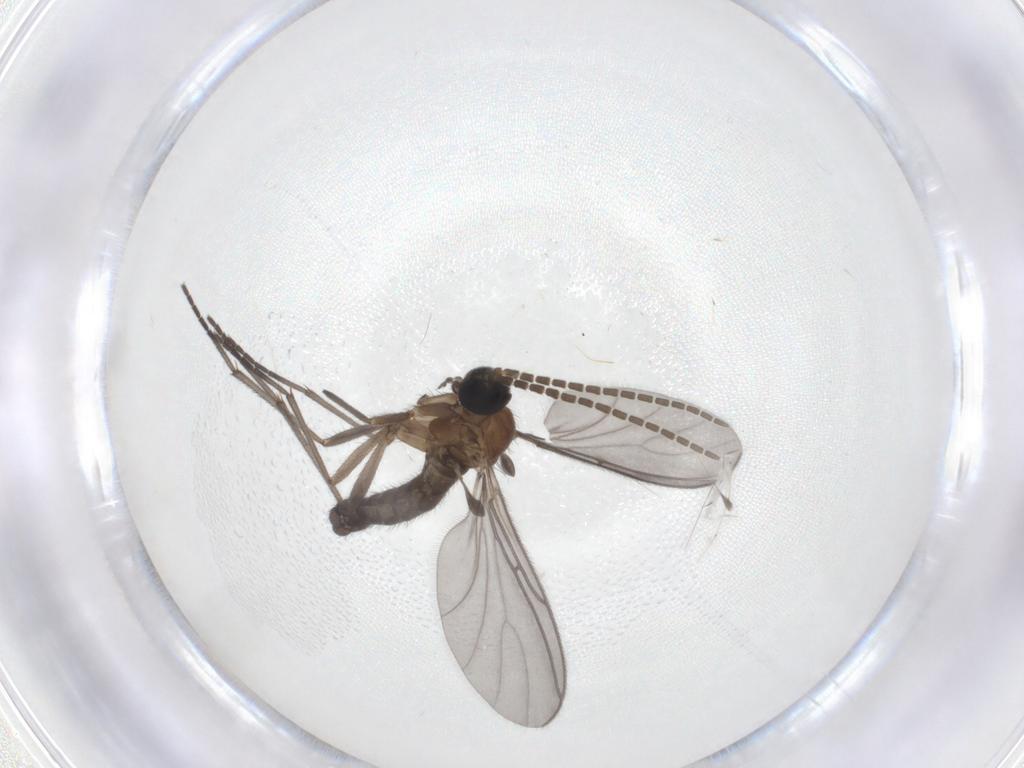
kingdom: Animalia
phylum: Arthropoda
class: Insecta
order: Diptera
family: Cecidomyiidae
